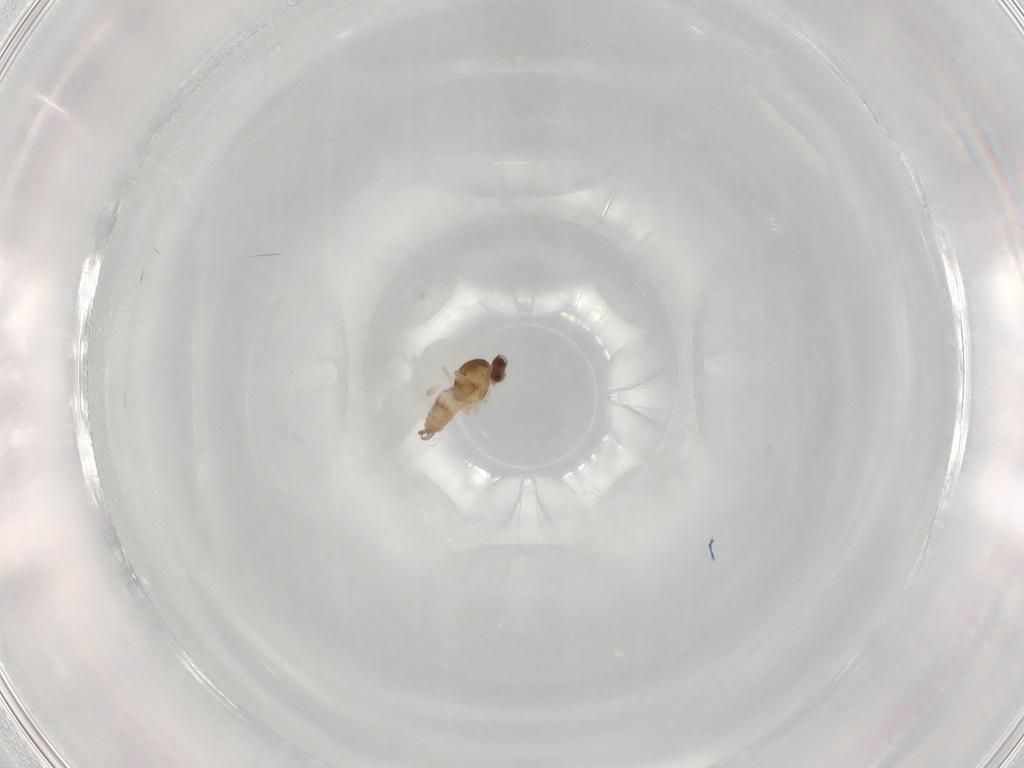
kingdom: Animalia
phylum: Arthropoda
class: Insecta
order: Diptera
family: Cecidomyiidae
